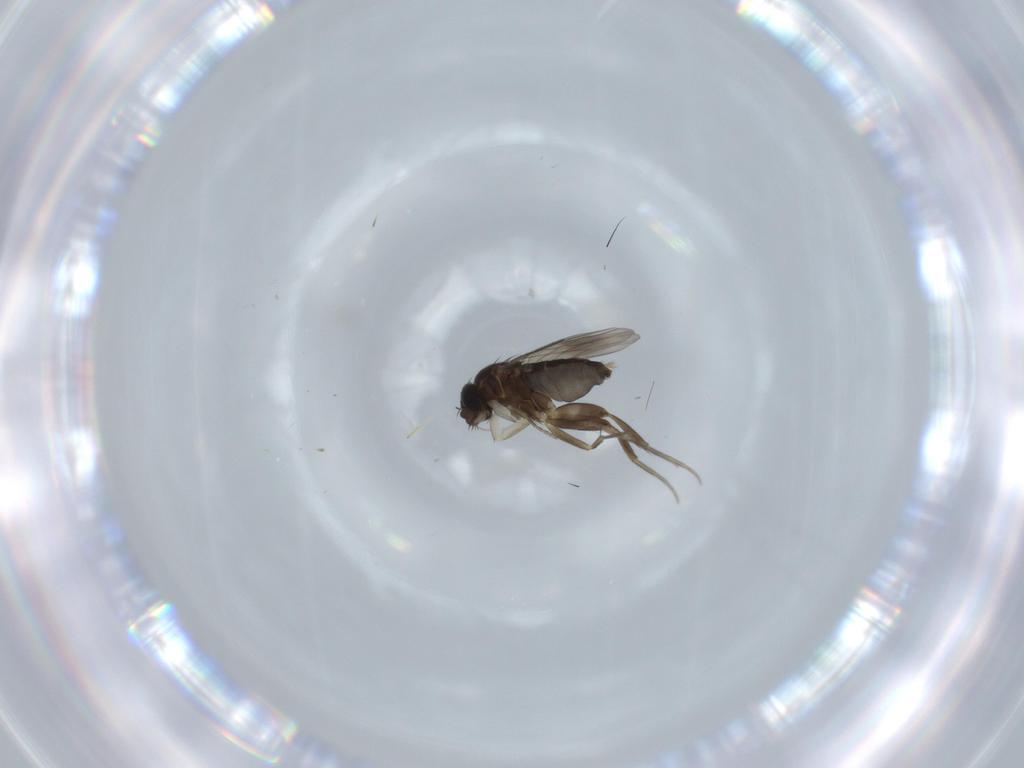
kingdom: Animalia
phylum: Arthropoda
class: Insecta
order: Diptera
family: Phoridae
